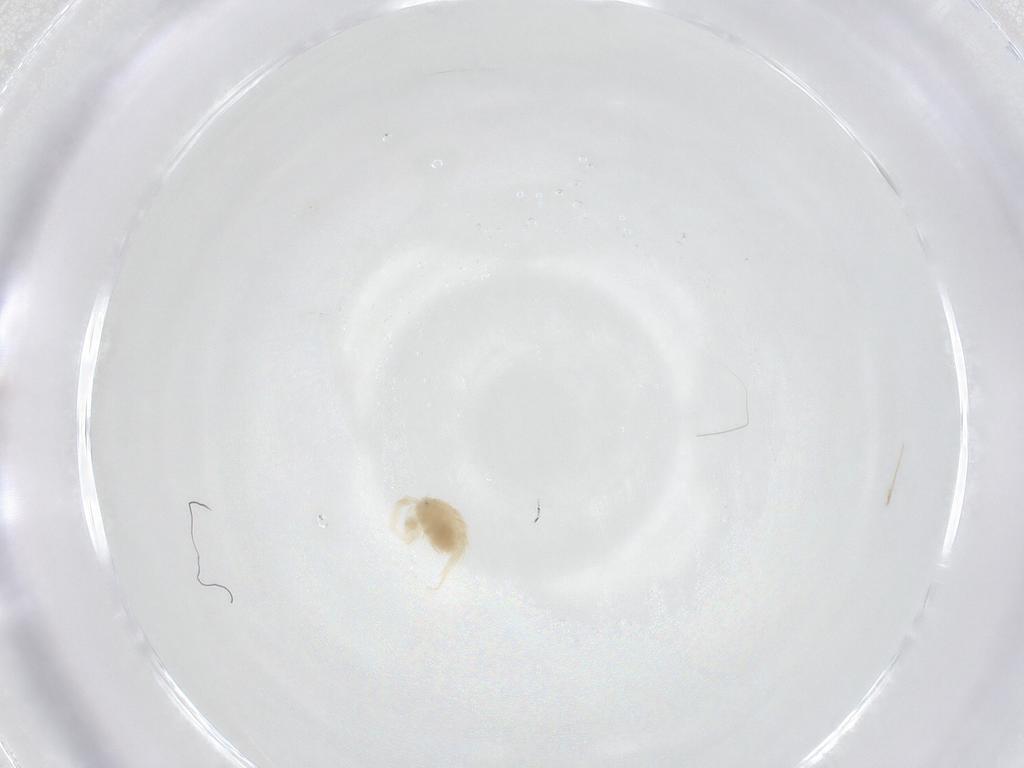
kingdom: Animalia
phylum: Arthropoda
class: Arachnida
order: Trombidiformes
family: Anystidae
